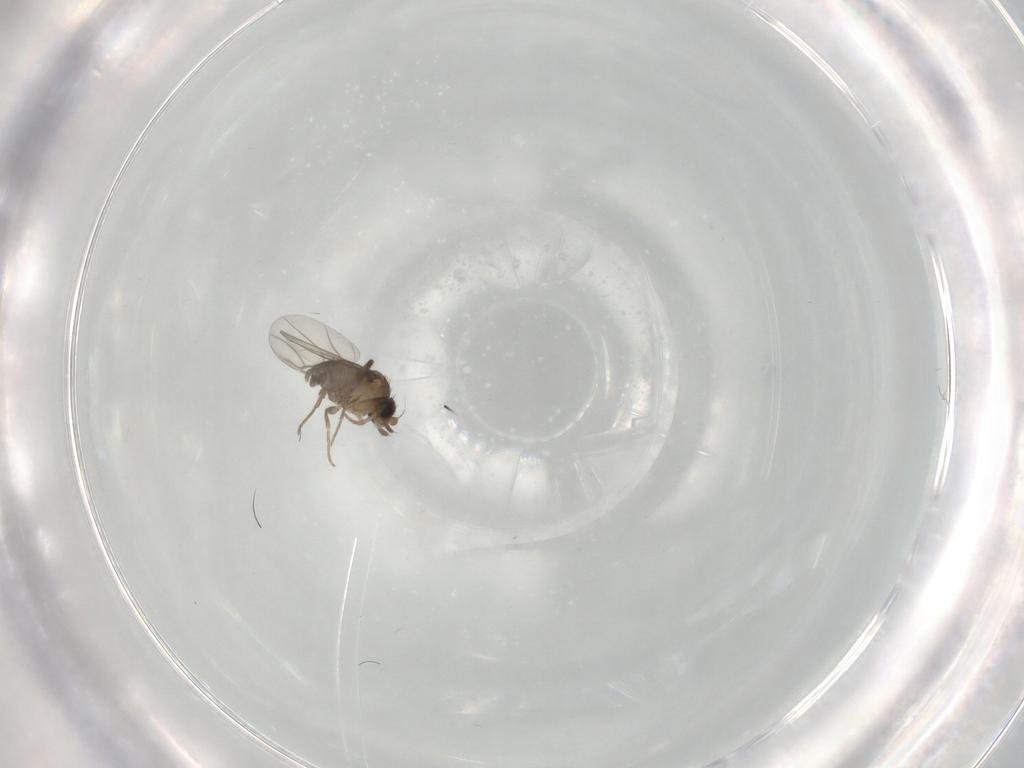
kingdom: Animalia
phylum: Arthropoda
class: Insecta
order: Diptera
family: Phoridae
